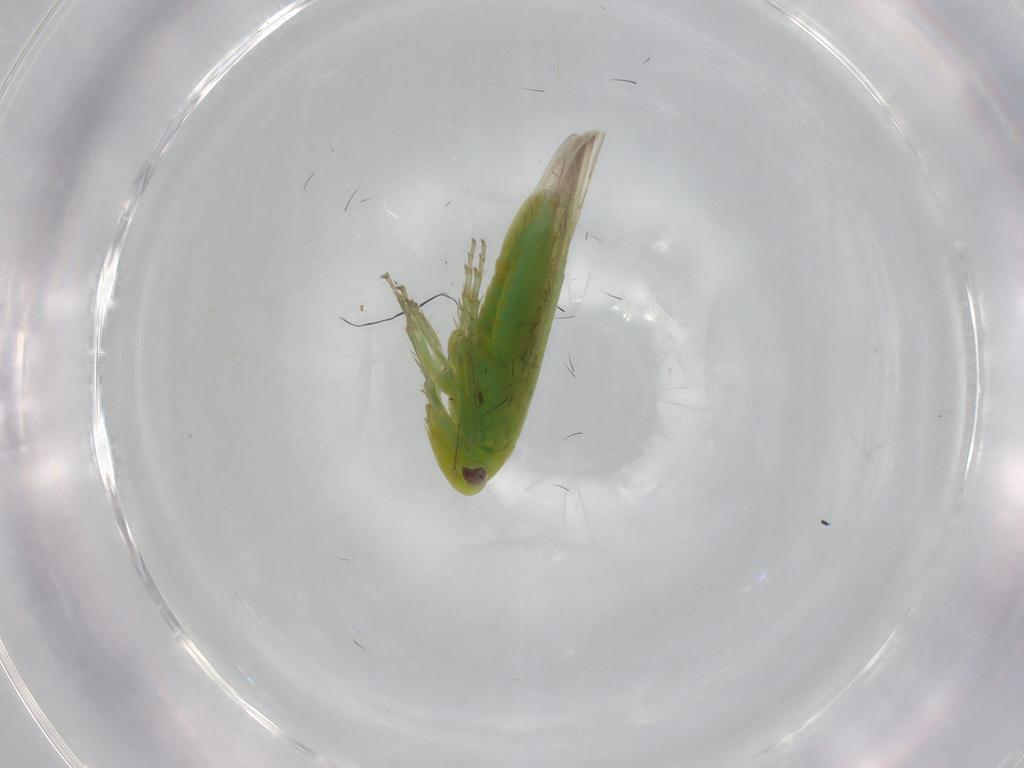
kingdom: Animalia
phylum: Arthropoda
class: Insecta
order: Hemiptera
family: Cicadellidae
